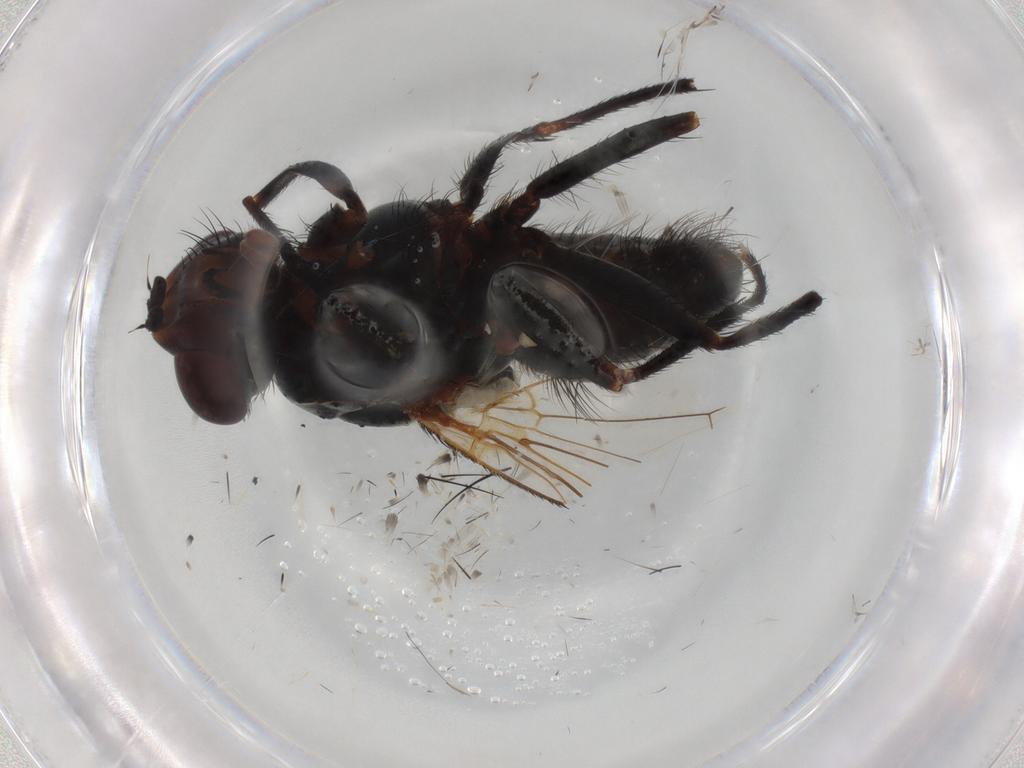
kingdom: Animalia
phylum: Arthropoda
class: Insecta
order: Diptera
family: Anthomyiidae
